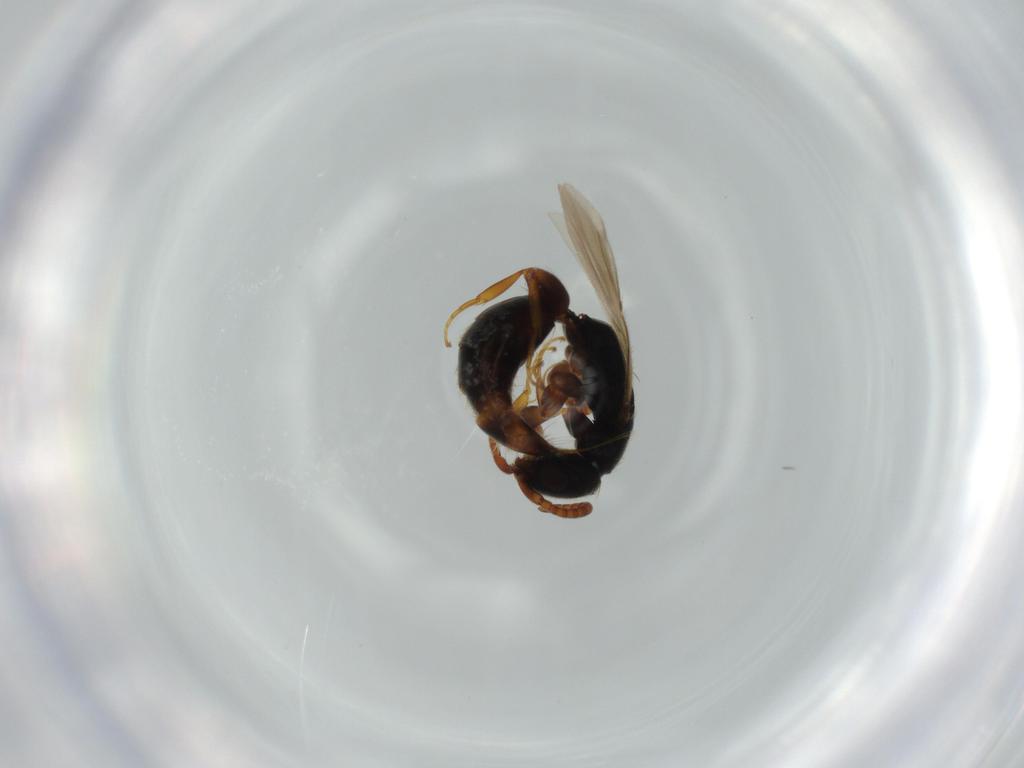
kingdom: Animalia
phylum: Arthropoda
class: Insecta
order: Hymenoptera
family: Bethylidae
